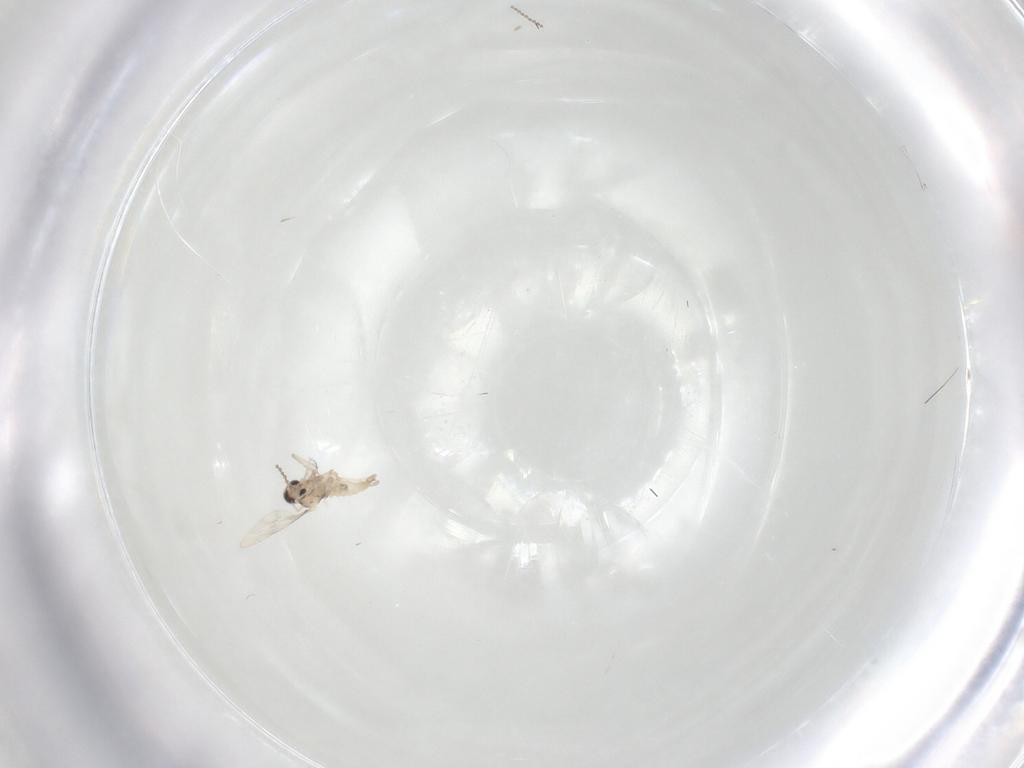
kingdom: Animalia
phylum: Arthropoda
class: Insecta
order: Diptera
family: Cecidomyiidae
